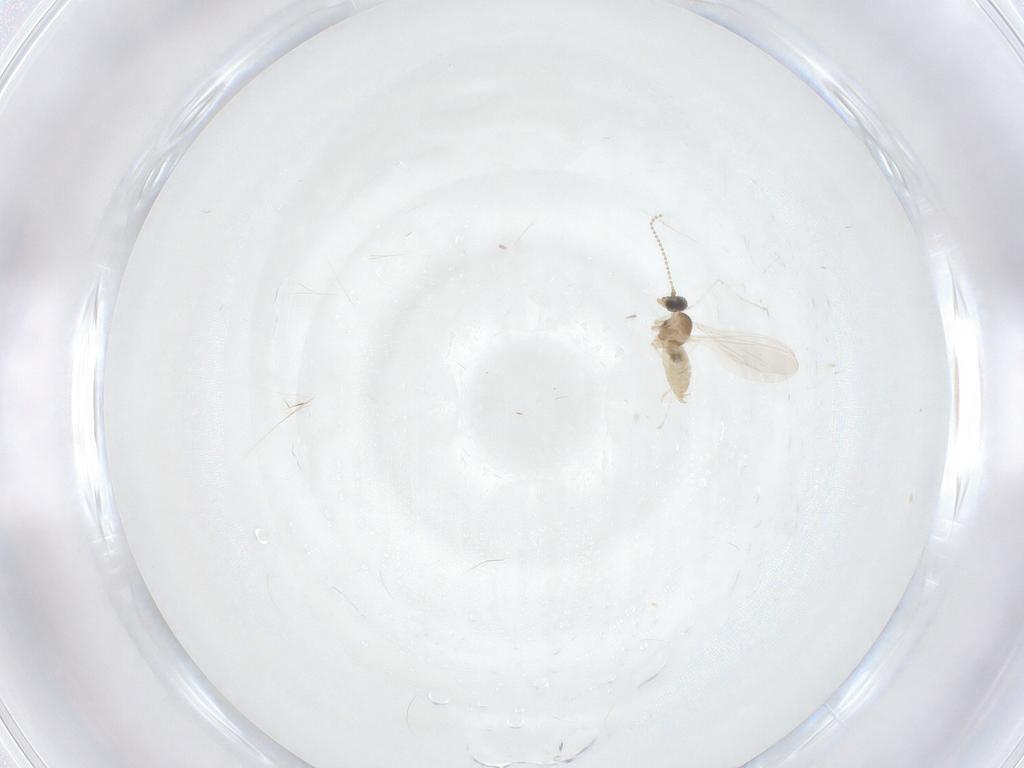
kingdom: Animalia
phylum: Arthropoda
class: Insecta
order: Diptera
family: Cecidomyiidae
